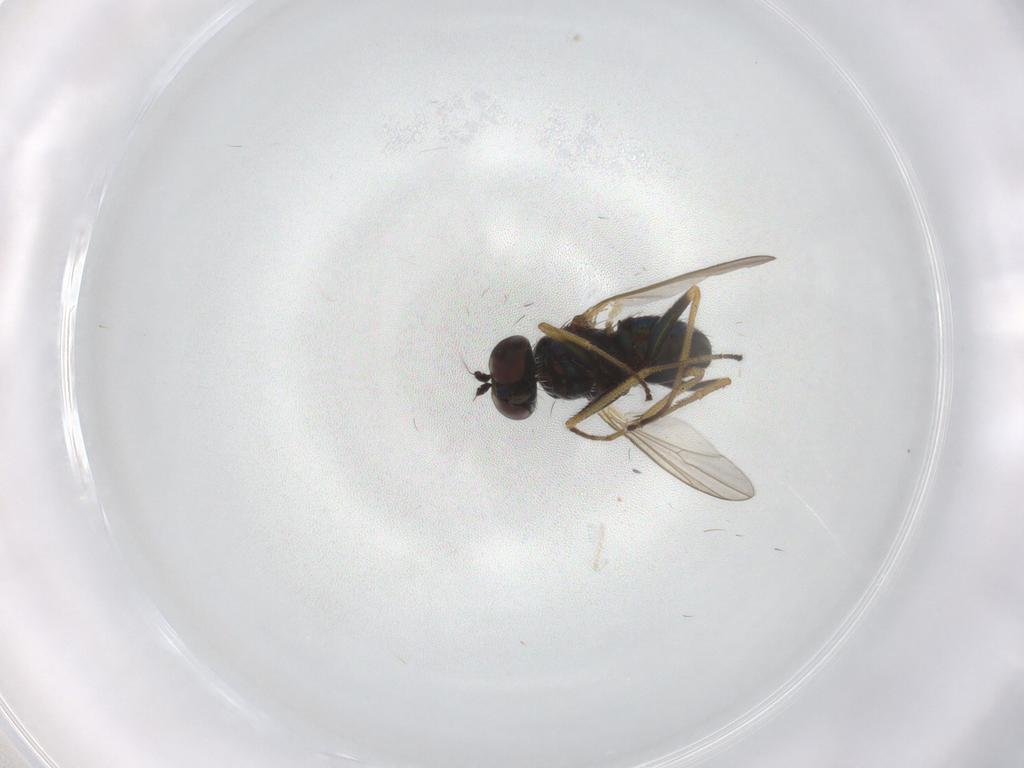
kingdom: Animalia
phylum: Arthropoda
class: Insecta
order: Diptera
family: Dolichopodidae
